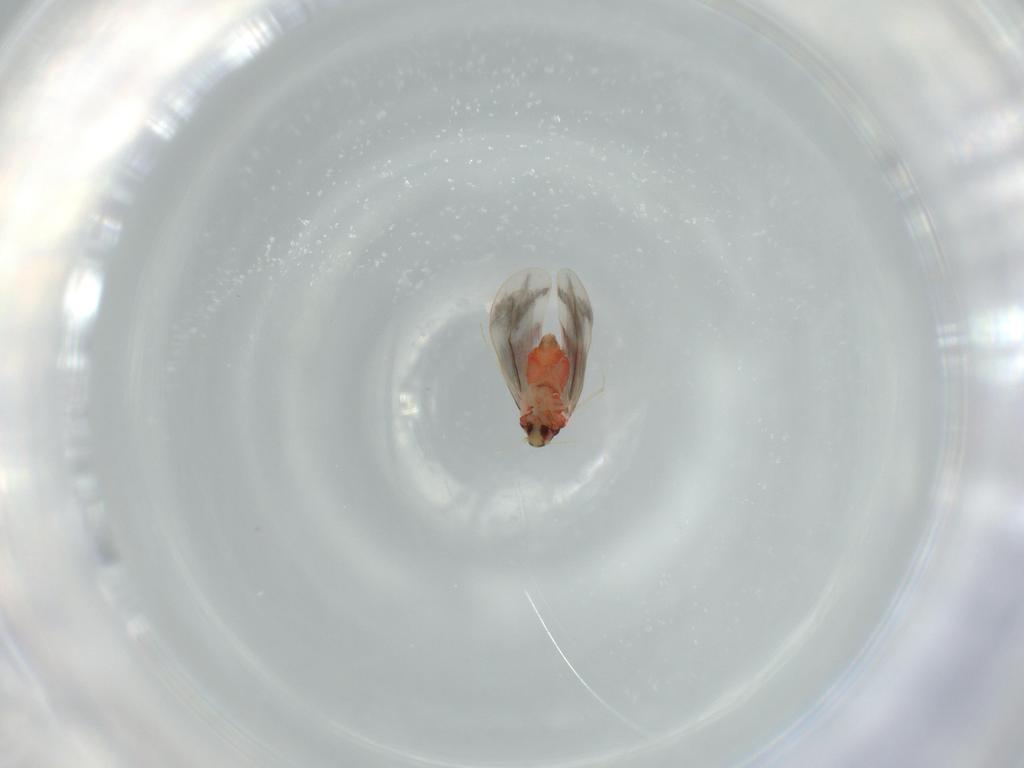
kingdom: Animalia
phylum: Arthropoda
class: Insecta
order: Hemiptera
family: Aleyrodidae
